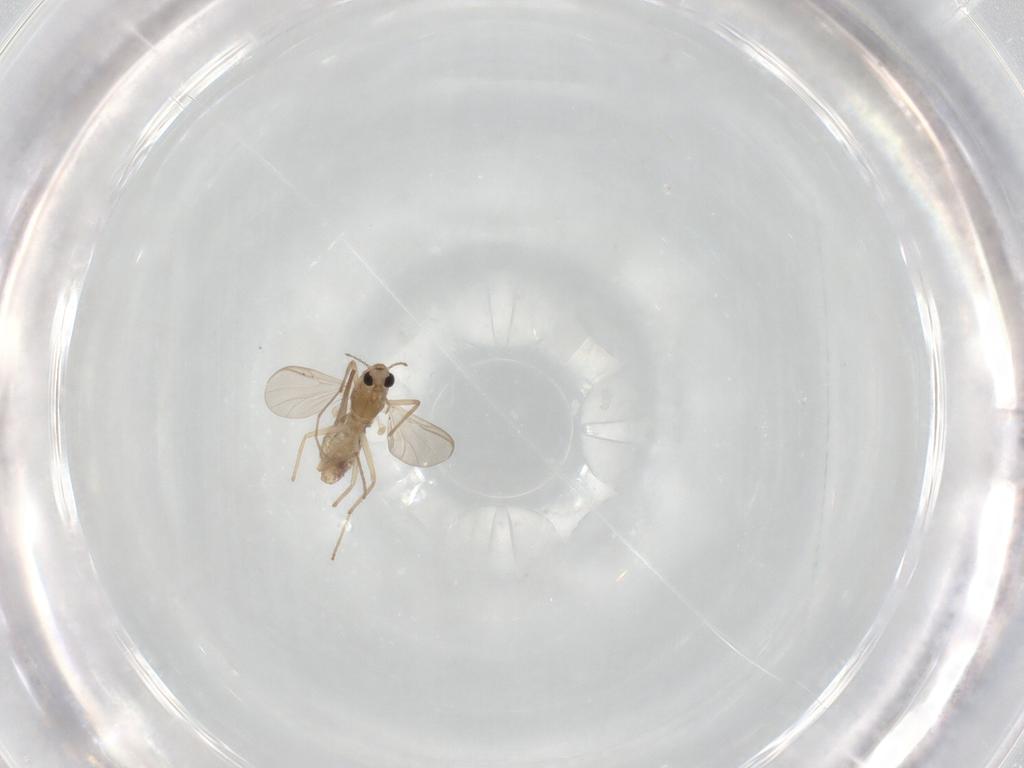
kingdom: Animalia
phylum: Arthropoda
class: Insecta
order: Diptera
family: Chironomidae
